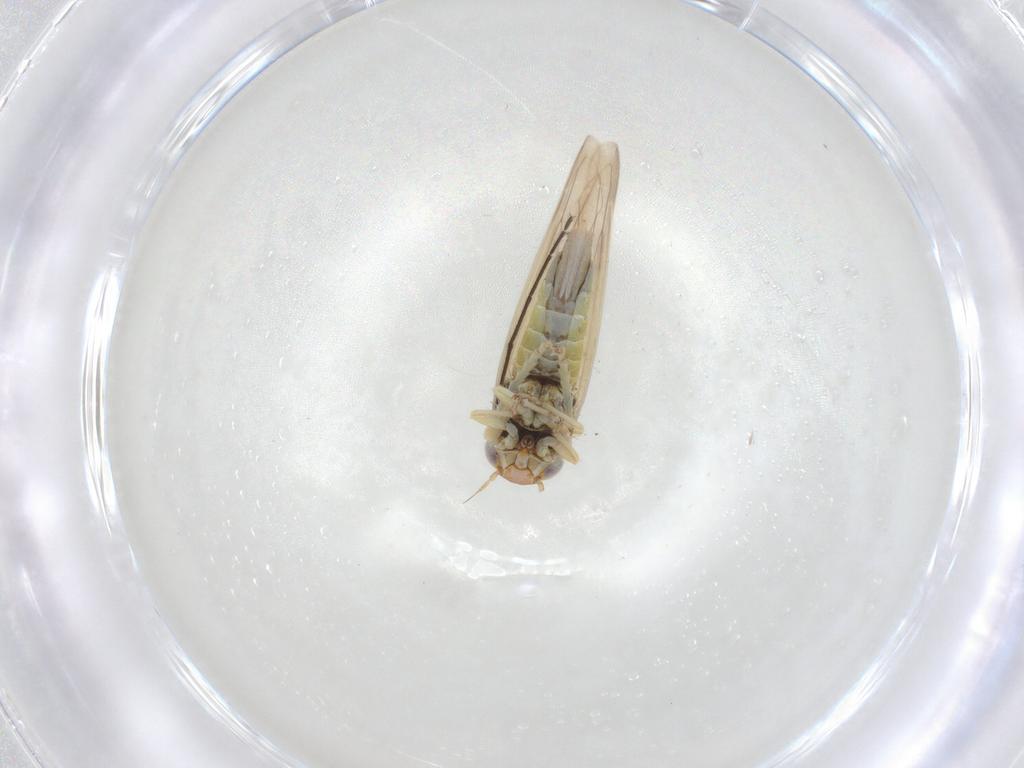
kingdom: Animalia
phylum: Arthropoda
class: Insecta
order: Hemiptera
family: Cicadellidae
